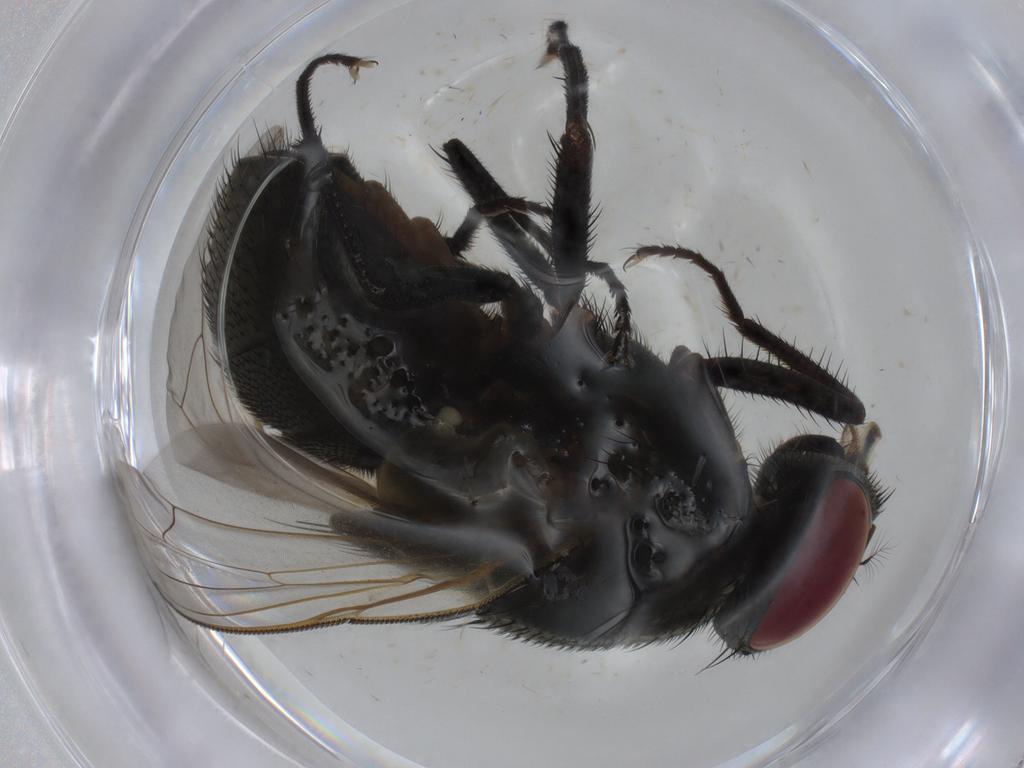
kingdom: Animalia
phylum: Arthropoda
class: Insecta
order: Diptera
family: Muscidae
